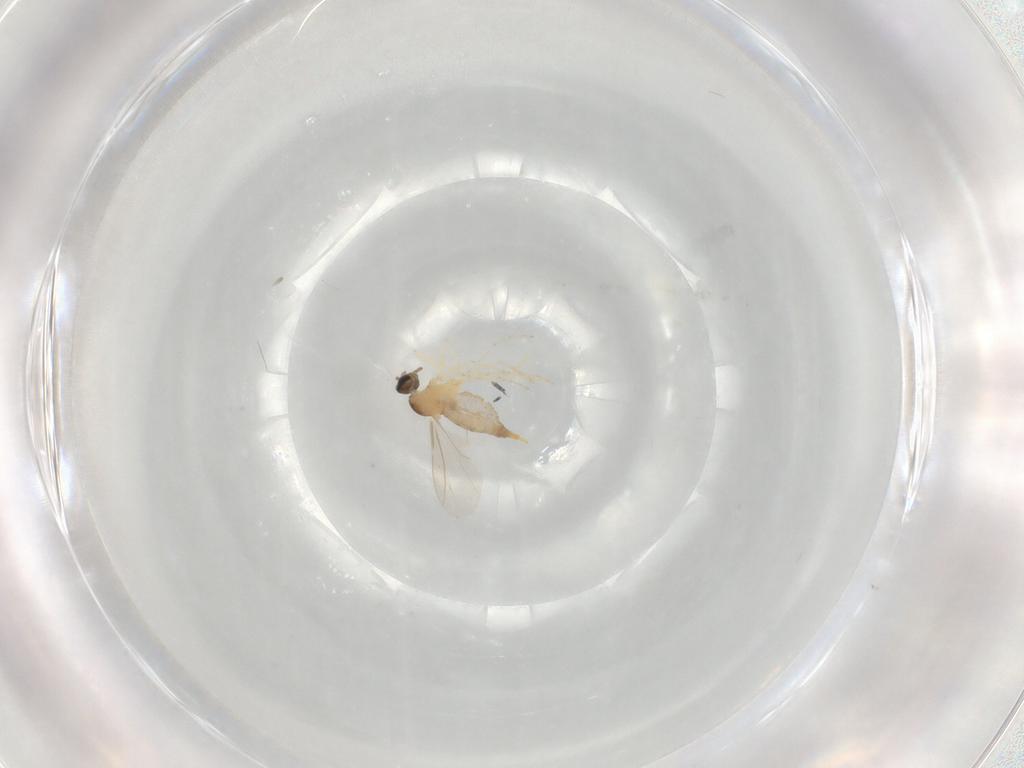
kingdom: Animalia
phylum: Arthropoda
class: Insecta
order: Diptera
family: Cecidomyiidae
